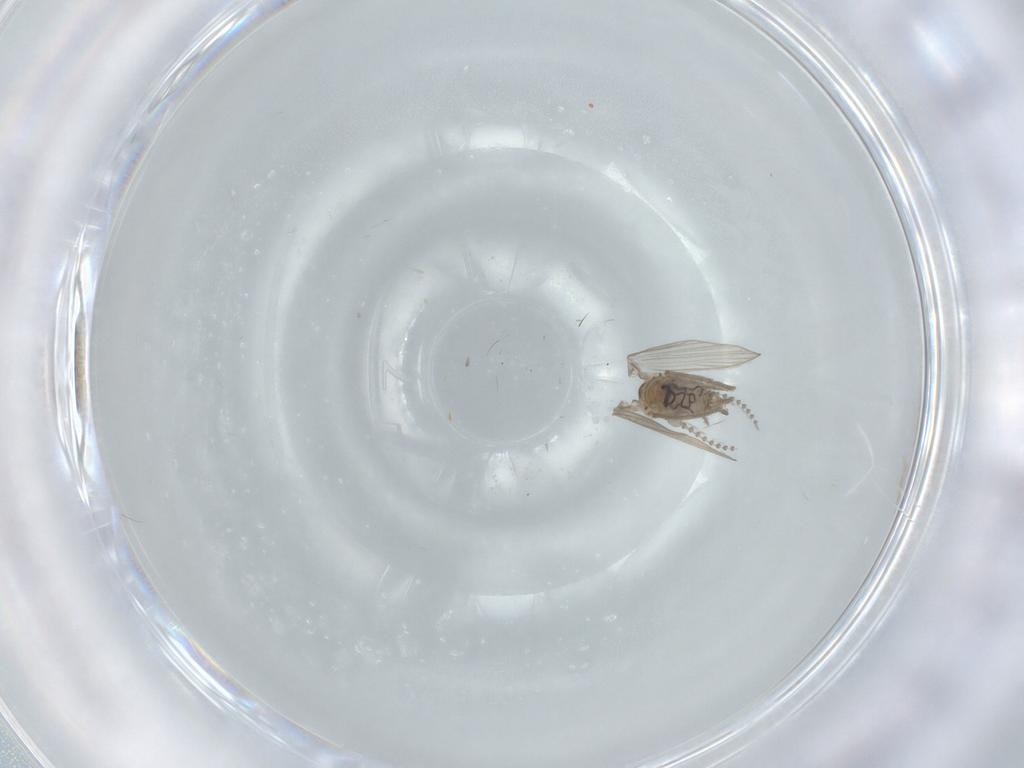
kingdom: Animalia
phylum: Arthropoda
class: Insecta
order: Diptera
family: Psychodidae
